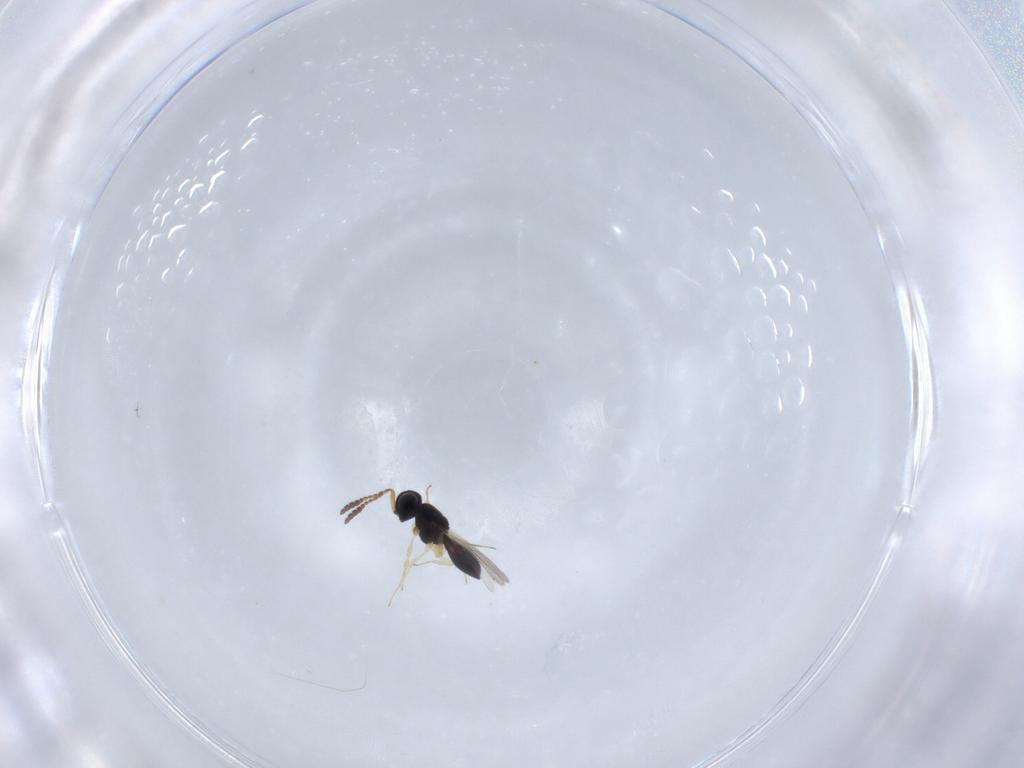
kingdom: Animalia
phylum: Arthropoda
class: Insecta
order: Hymenoptera
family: Scelionidae
